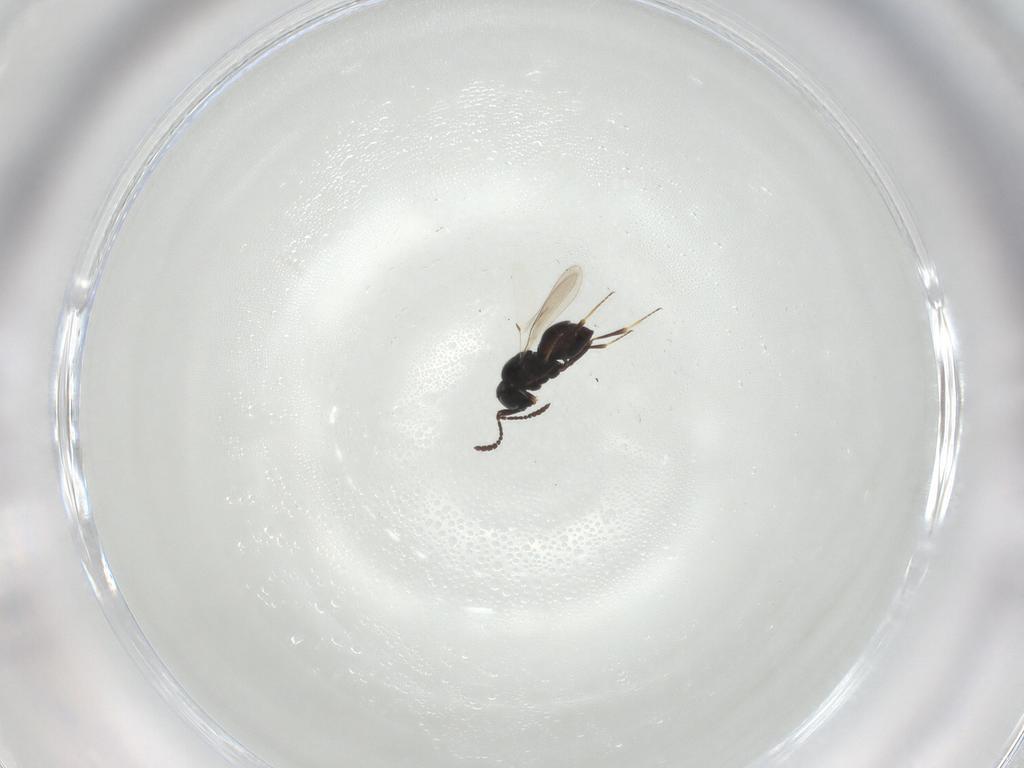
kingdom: Animalia
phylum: Arthropoda
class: Insecta
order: Hymenoptera
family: Scelionidae
